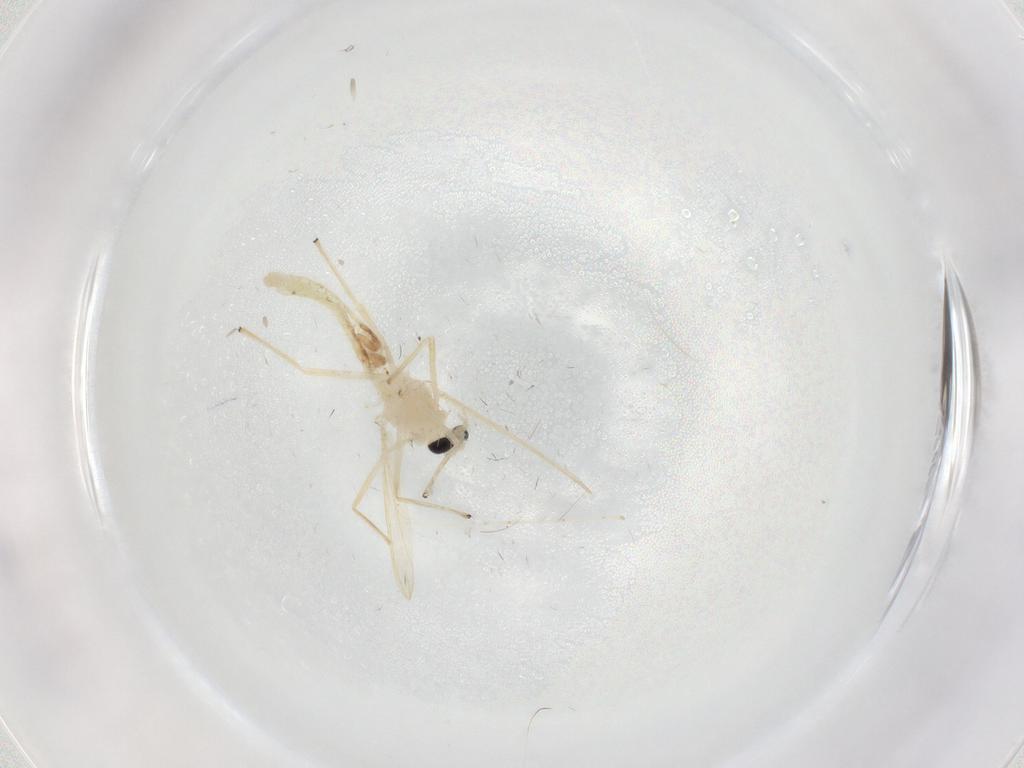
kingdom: Animalia
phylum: Arthropoda
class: Insecta
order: Diptera
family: Chironomidae
